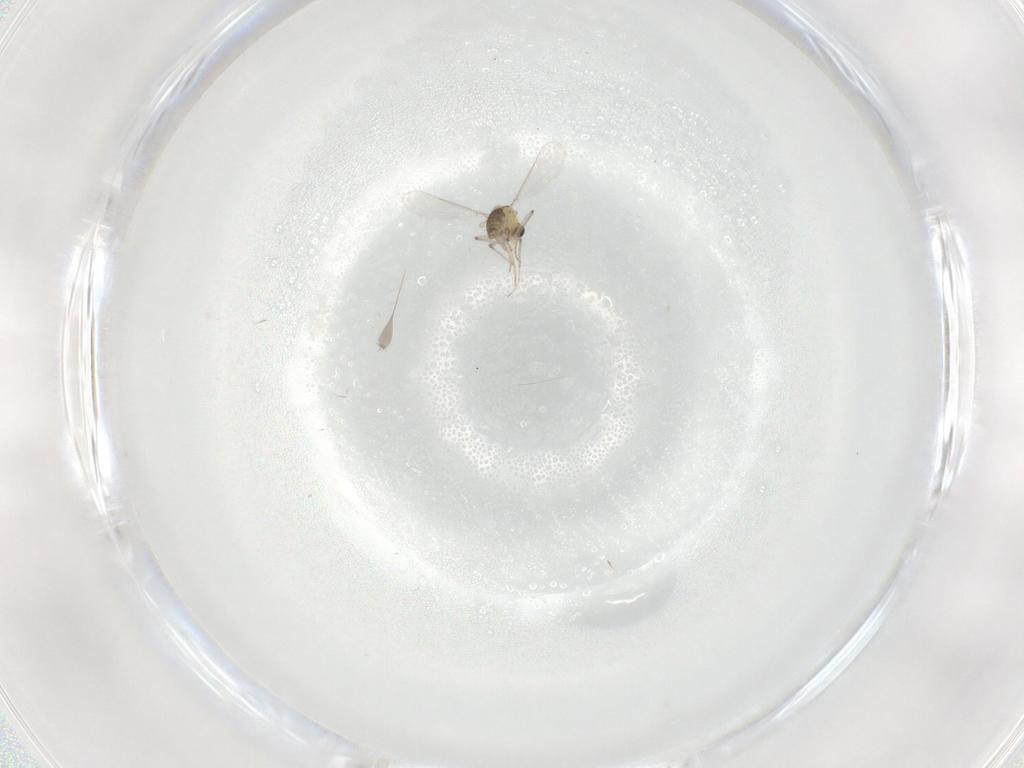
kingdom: Animalia
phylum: Arthropoda
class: Insecta
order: Diptera
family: Chironomidae
